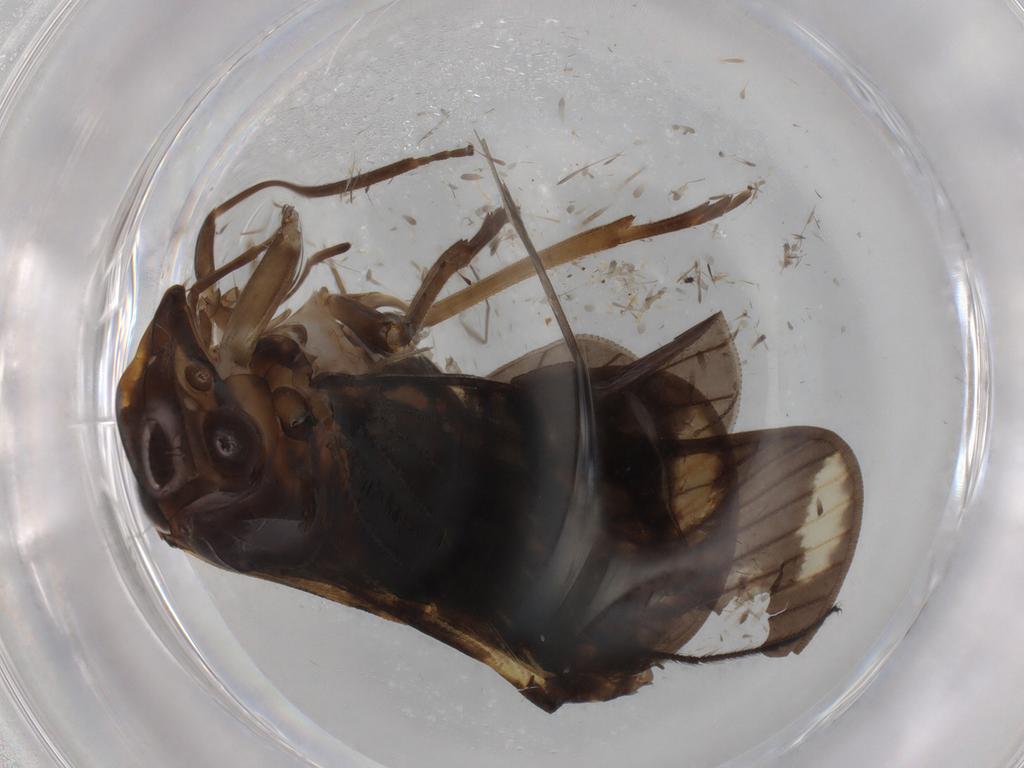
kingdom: Animalia
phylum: Arthropoda
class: Insecta
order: Hemiptera
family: Cixiidae
